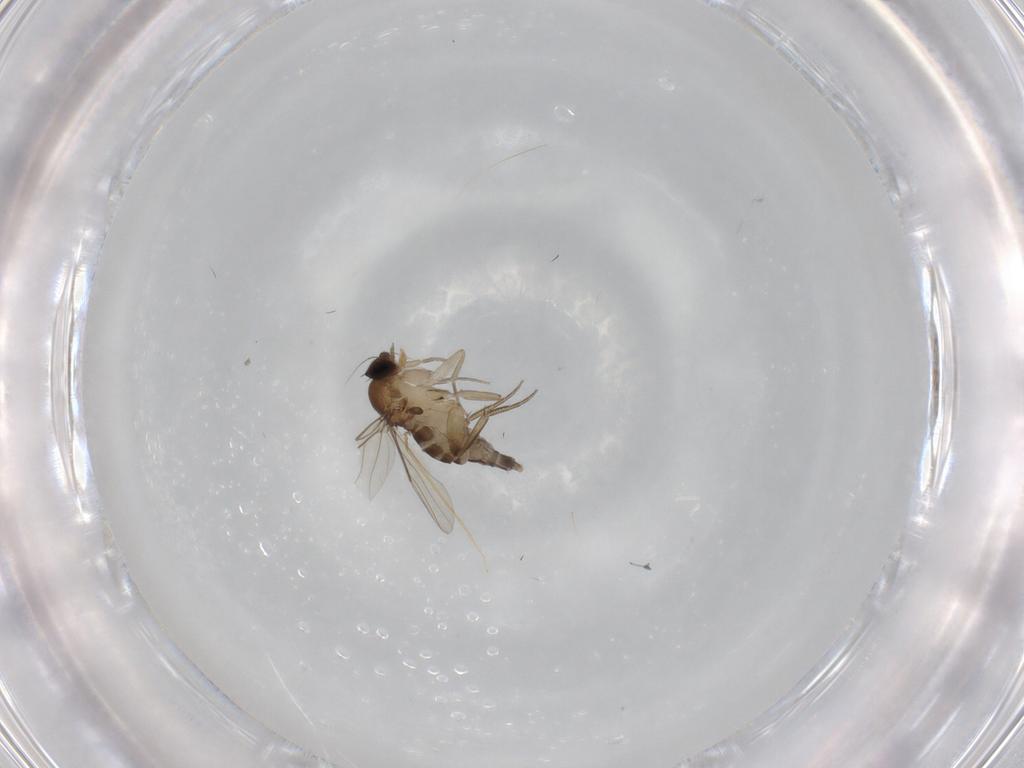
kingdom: Animalia
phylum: Arthropoda
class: Insecta
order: Diptera
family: Phoridae
